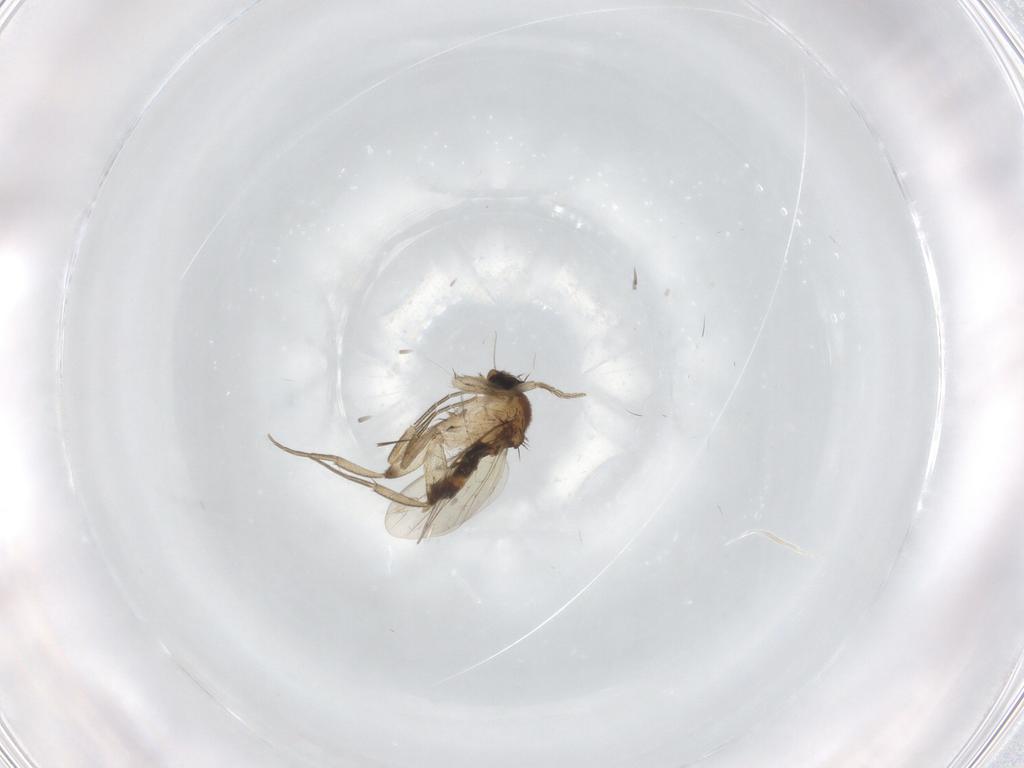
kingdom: Animalia
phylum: Arthropoda
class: Insecta
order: Diptera
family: Phoridae
